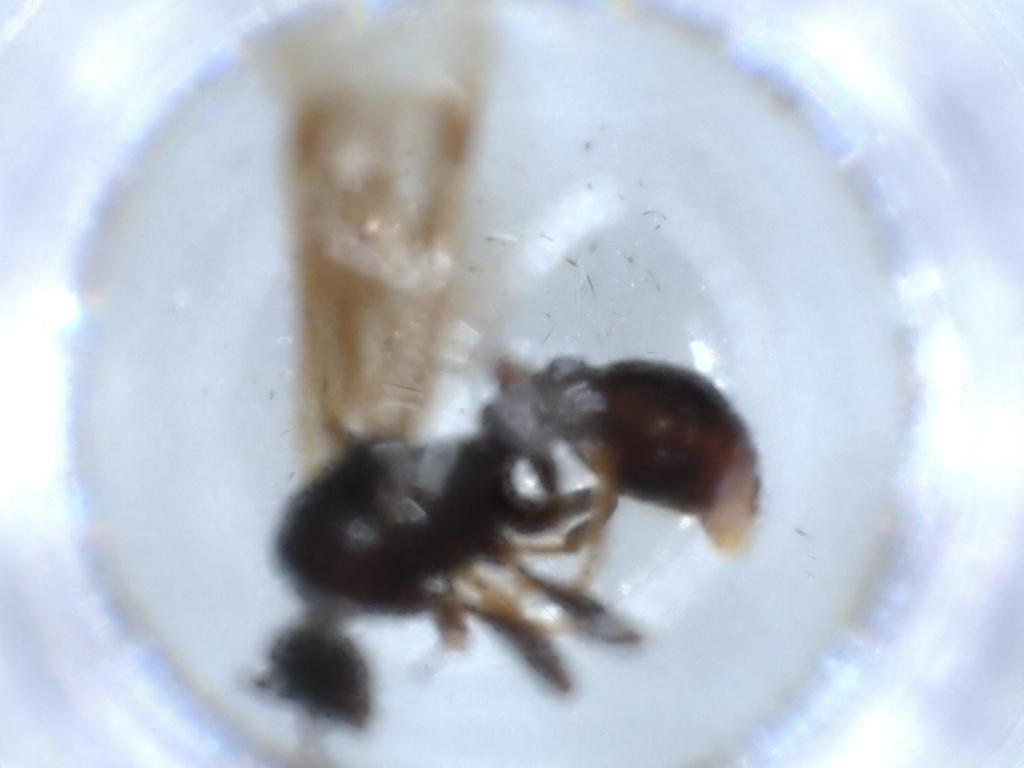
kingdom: Animalia
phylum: Arthropoda
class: Insecta
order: Hymenoptera
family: Formicidae
